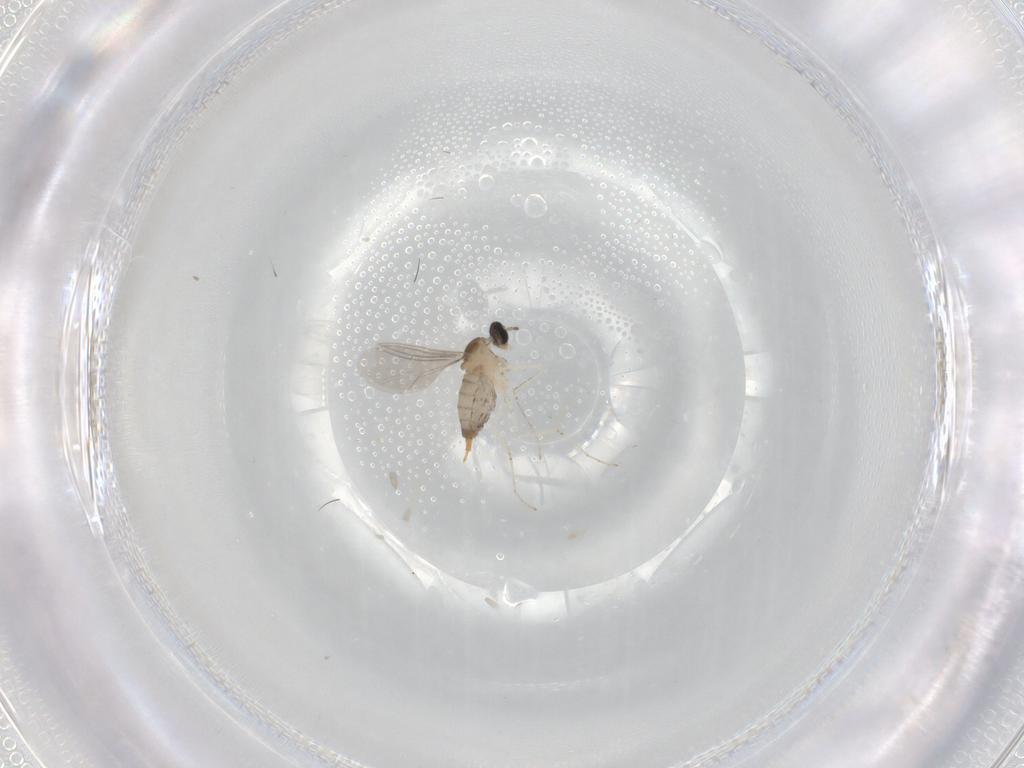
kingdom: Animalia
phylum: Arthropoda
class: Insecta
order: Diptera
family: Cecidomyiidae
